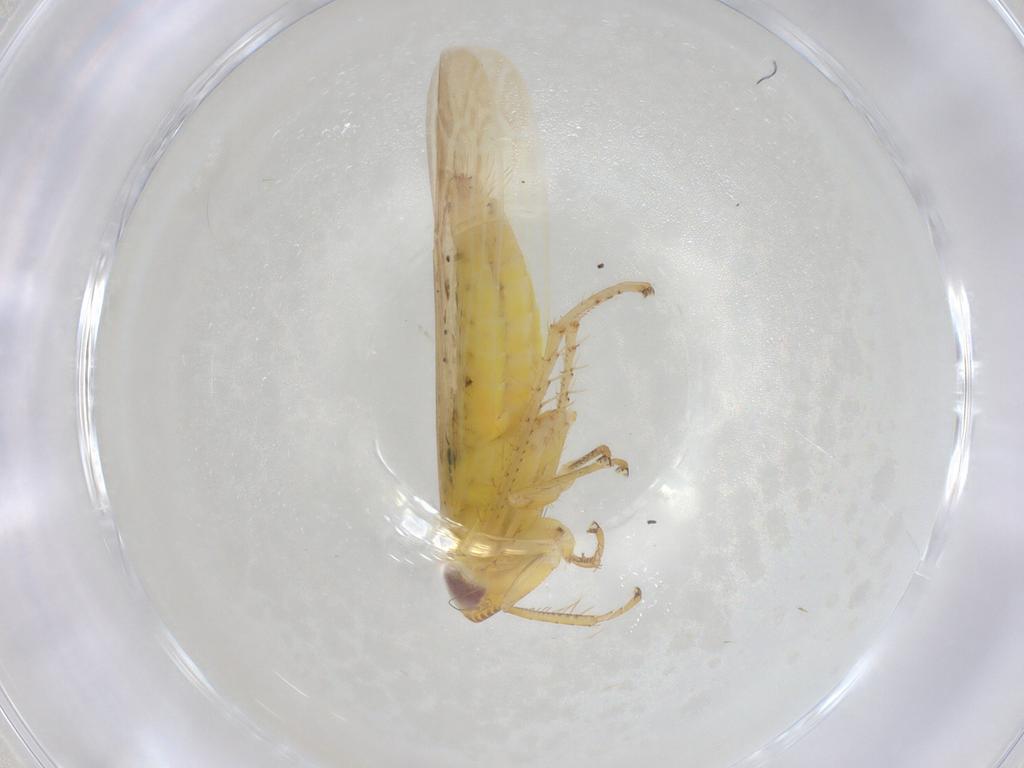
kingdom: Animalia
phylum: Arthropoda
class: Insecta
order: Hemiptera
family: Cicadellidae
